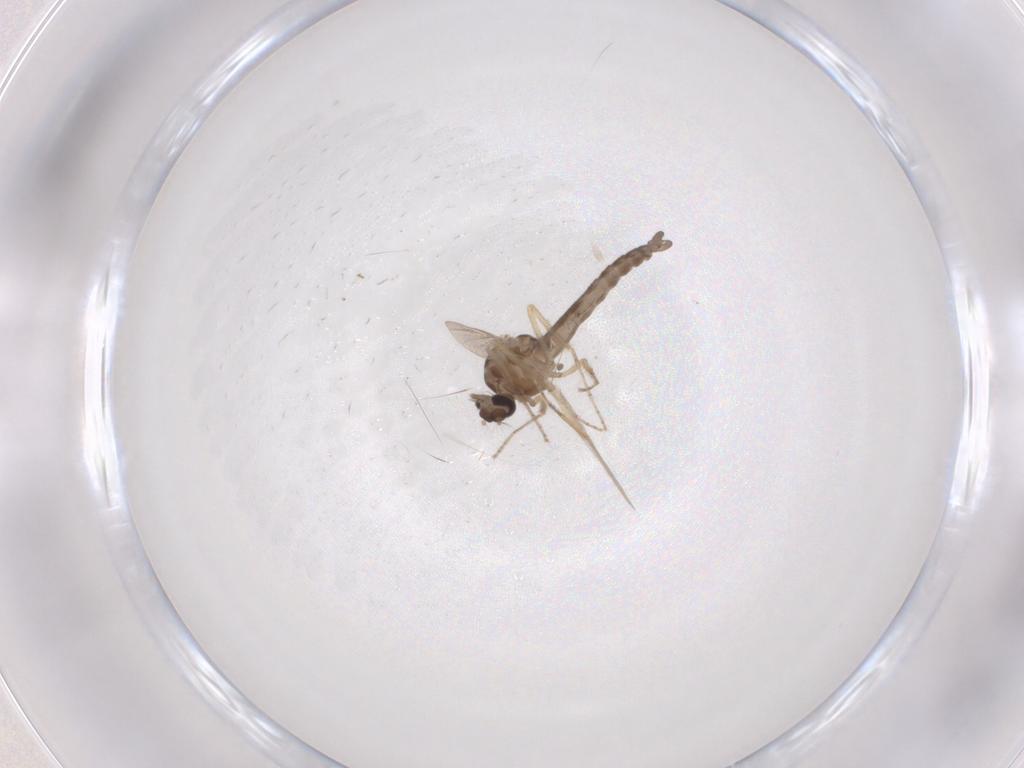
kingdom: Animalia
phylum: Arthropoda
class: Insecta
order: Diptera
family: Ceratopogonidae
